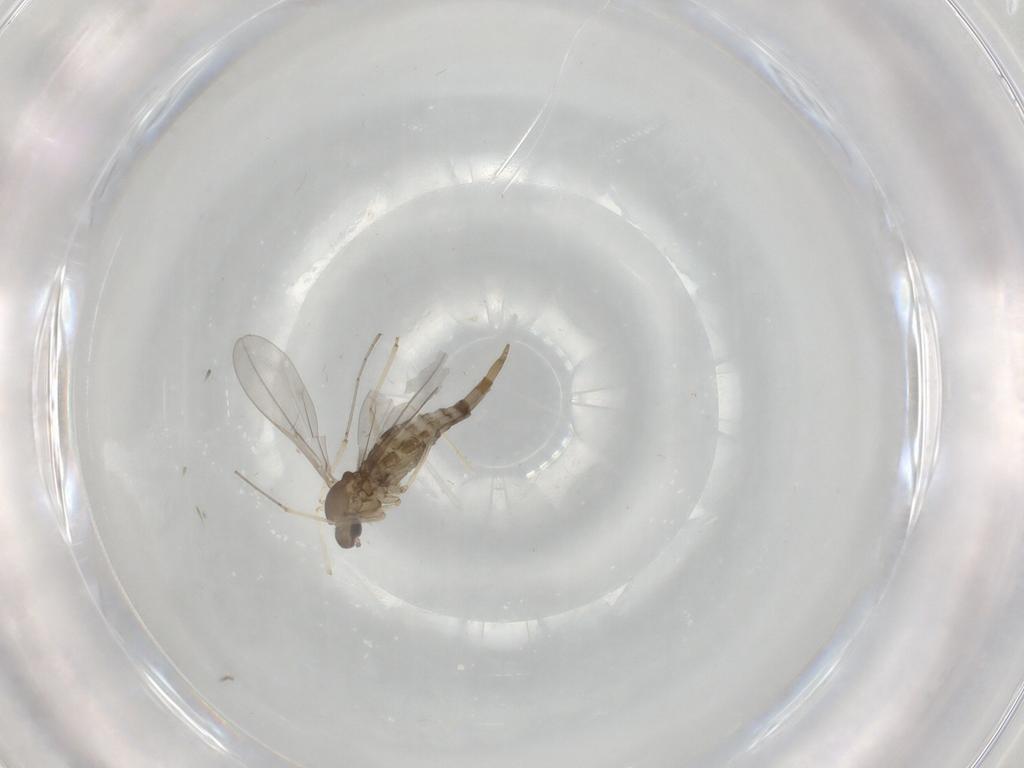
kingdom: Animalia
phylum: Arthropoda
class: Insecta
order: Diptera
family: Cecidomyiidae
